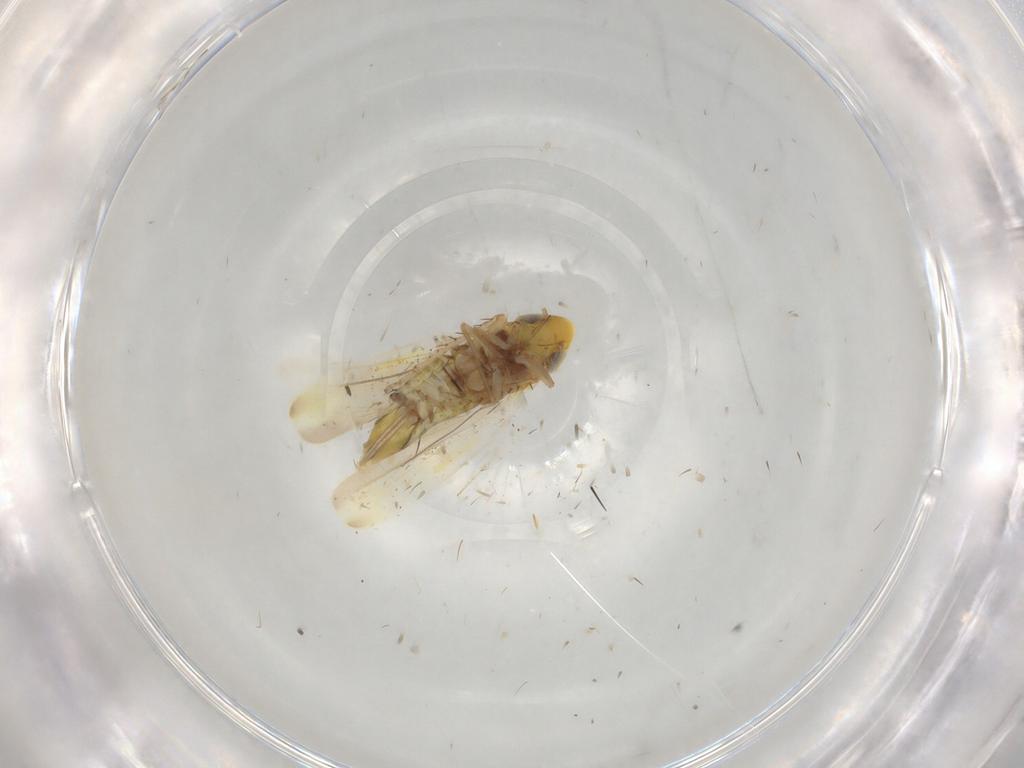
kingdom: Animalia
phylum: Arthropoda
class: Insecta
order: Hemiptera
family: Cicadellidae
